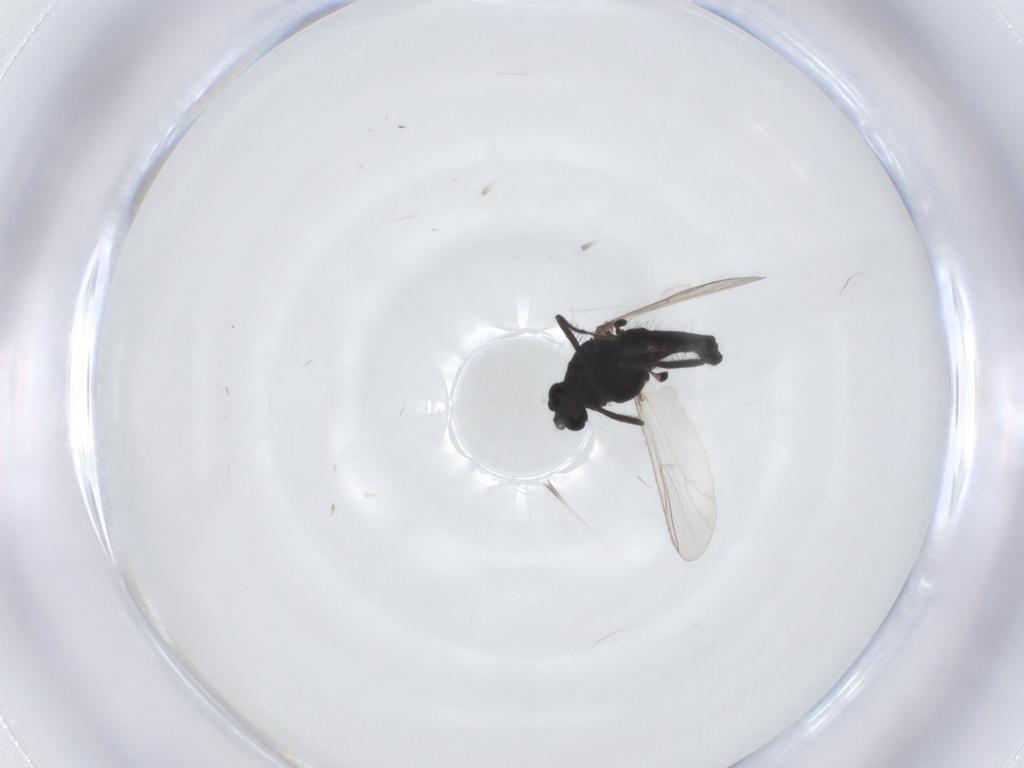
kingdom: Animalia
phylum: Arthropoda
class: Insecta
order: Diptera
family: Chironomidae
